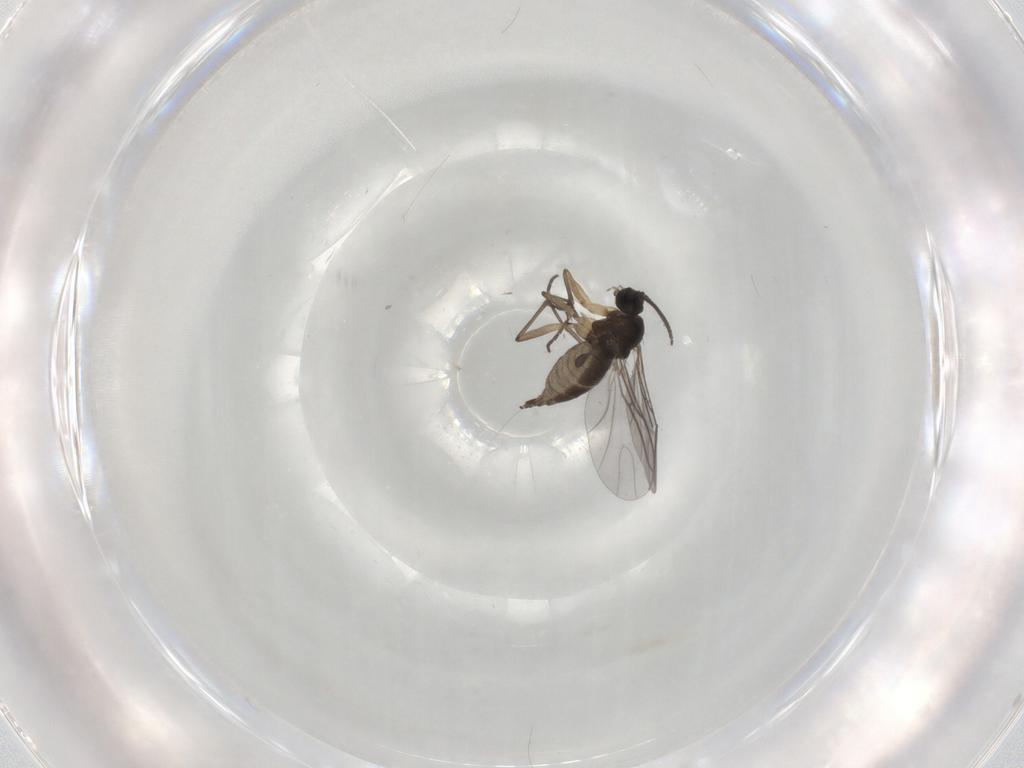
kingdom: Animalia
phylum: Arthropoda
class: Insecta
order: Diptera
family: Sciaridae
